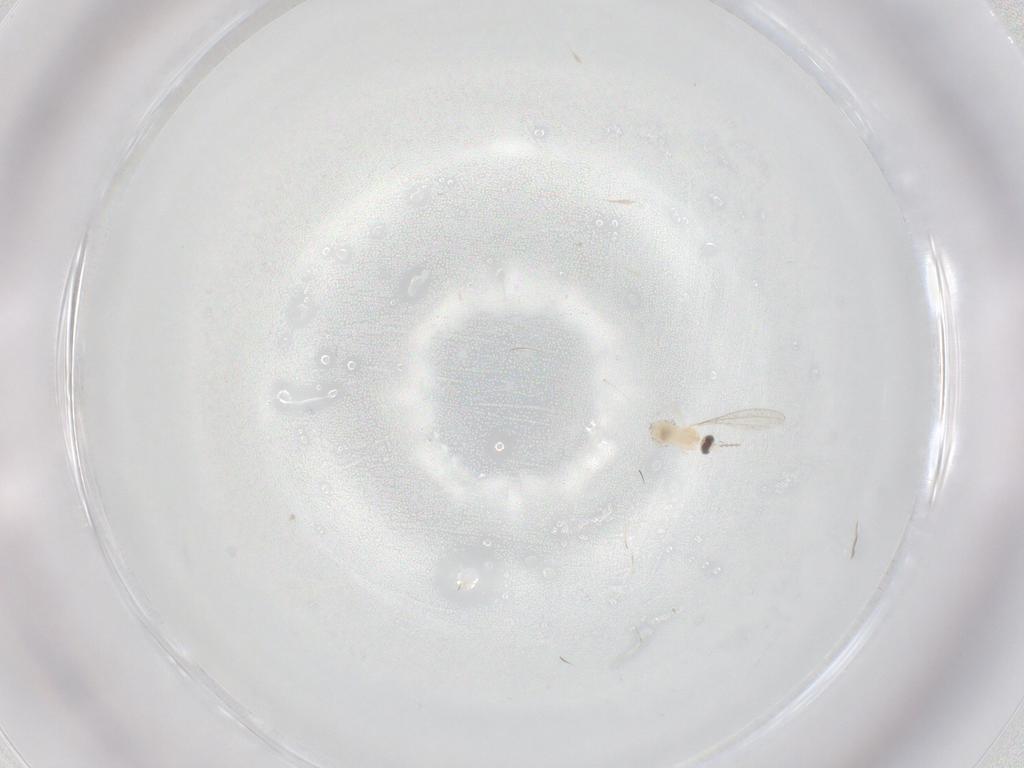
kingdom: Animalia
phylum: Arthropoda
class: Insecta
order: Diptera
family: Cecidomyiidae
